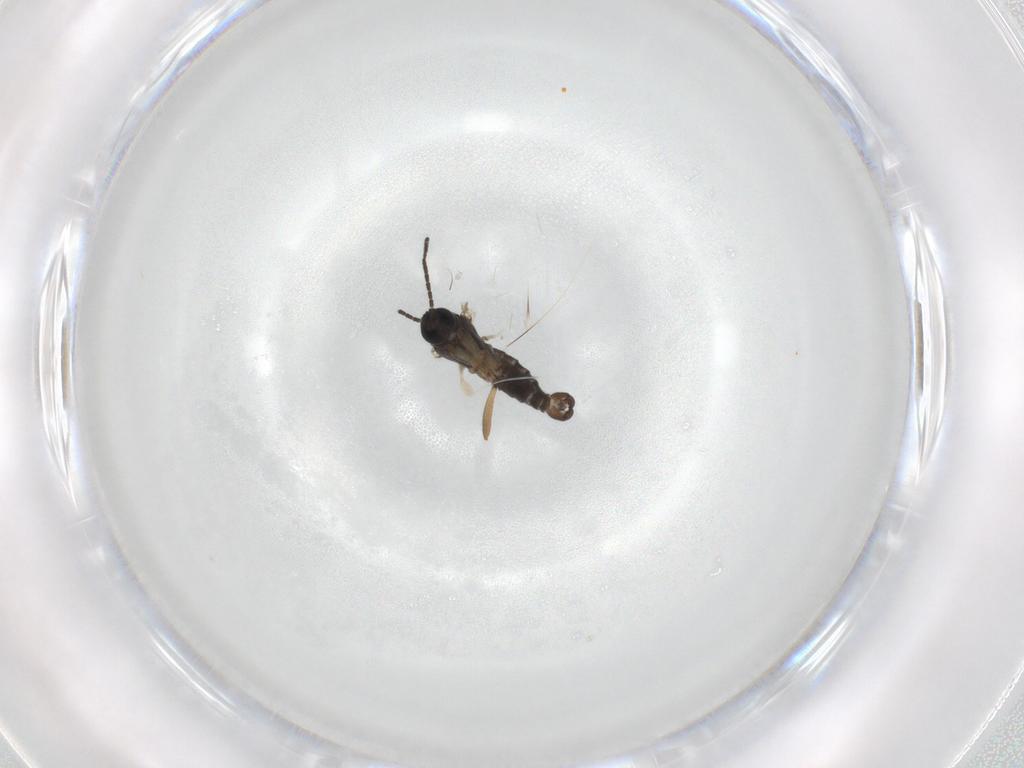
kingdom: Animalia
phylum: Arthropoda
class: Insecta
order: Diptera
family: Sciaridae
